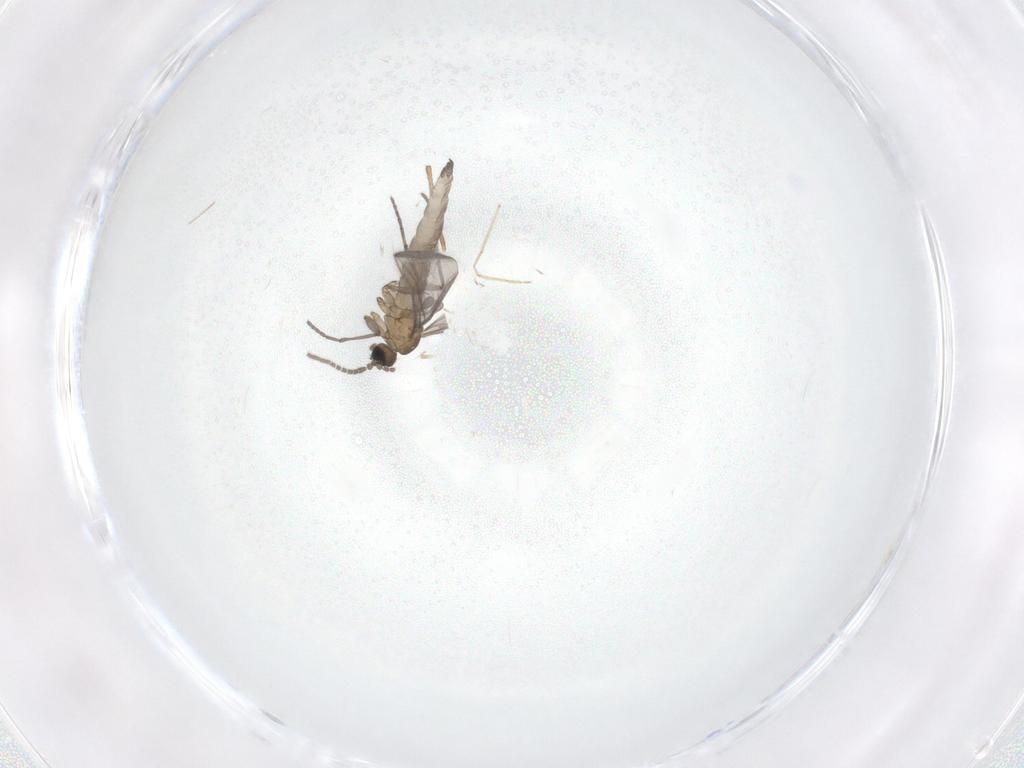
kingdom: Animalia
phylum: Arthropoda
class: Insecta
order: Diptera
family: Sciaridae
